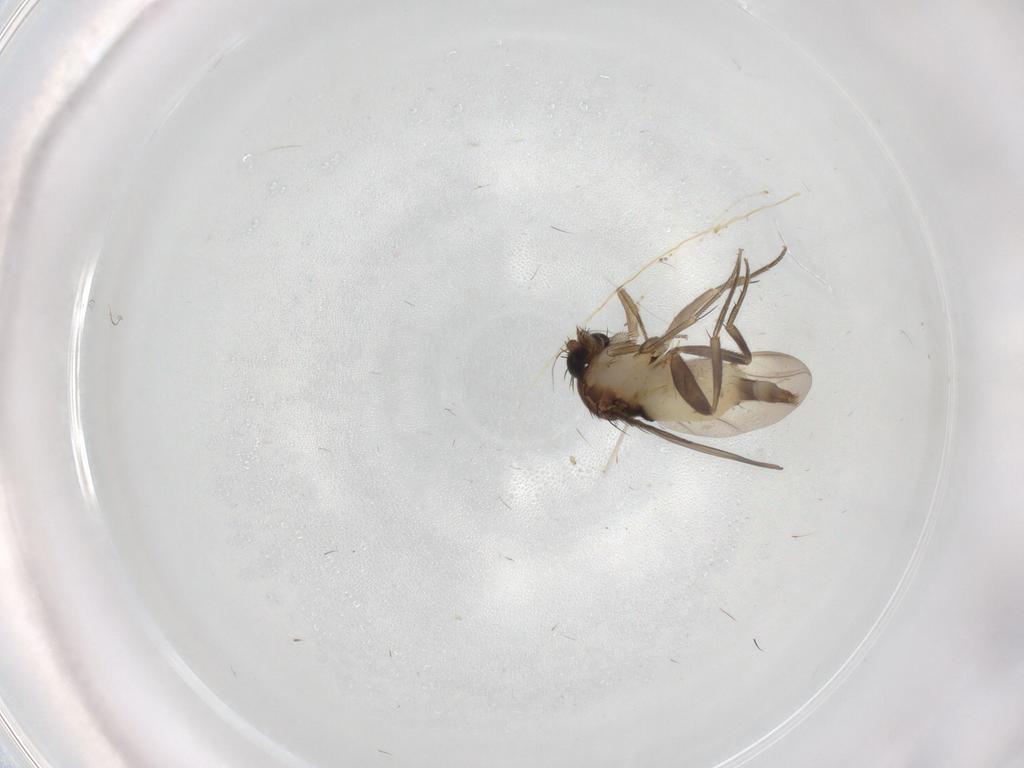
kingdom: Animalia
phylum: Arthropoda
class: Insecta
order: Diptera
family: Cecidomyiidae
